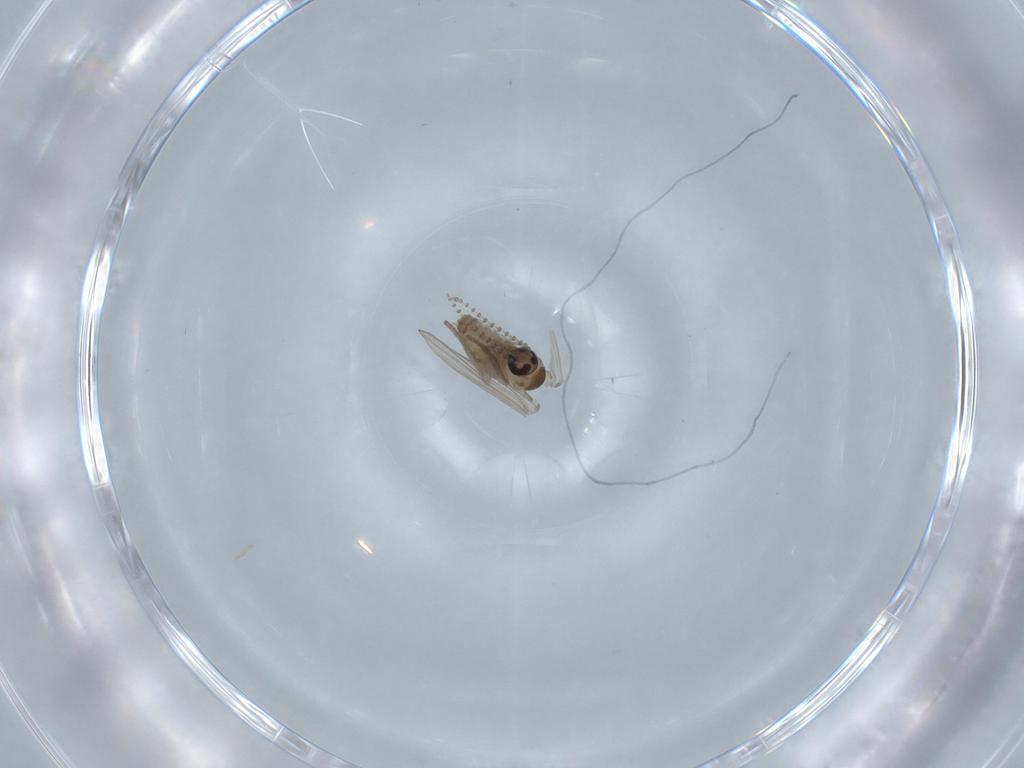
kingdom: Animalia
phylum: Arthropoda
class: Insecta
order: Diptera
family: Psychodidae
